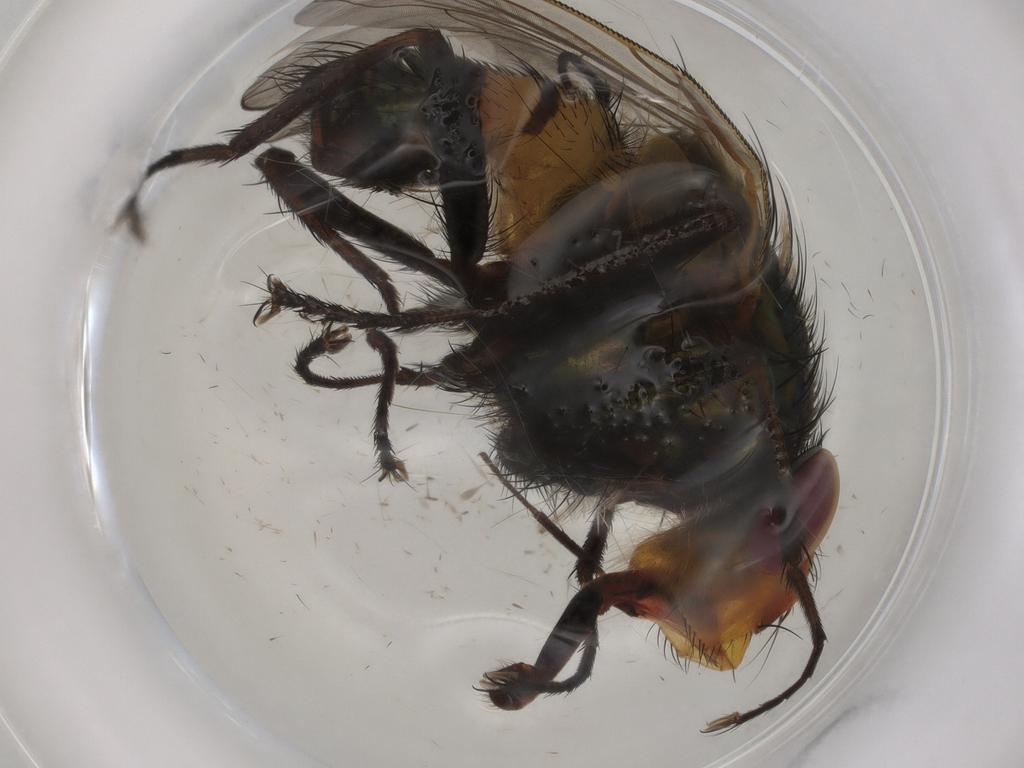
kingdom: Animalia
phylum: Arthropoda
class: Insecta
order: Diptera
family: Calliphoridae
